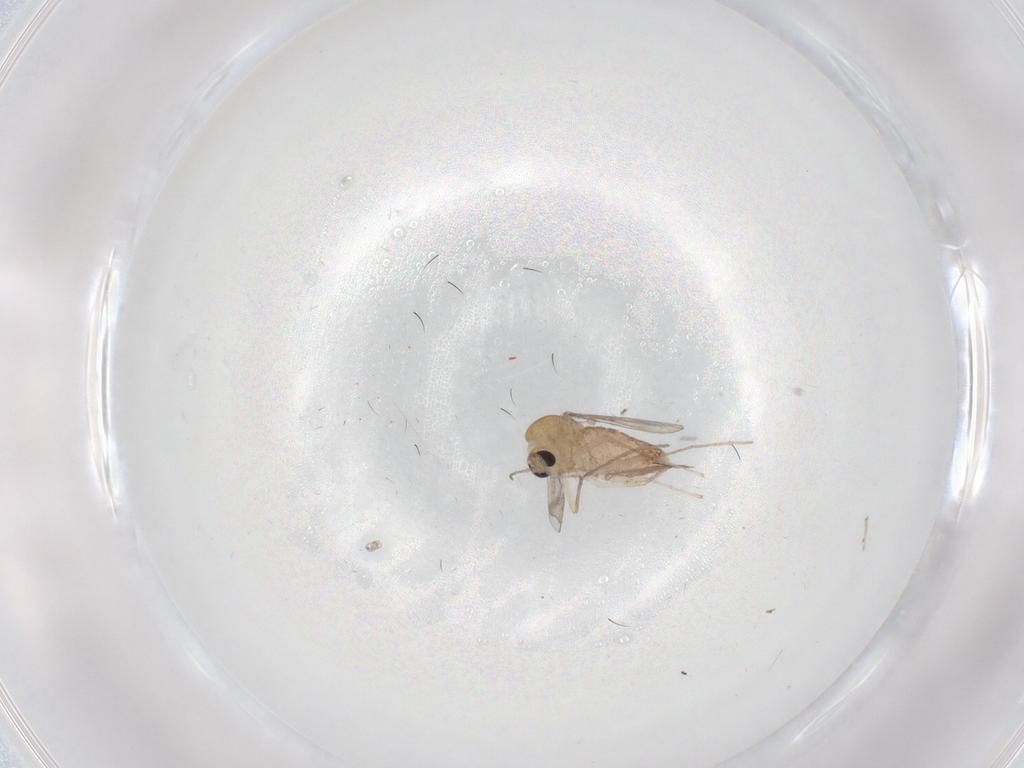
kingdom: Animalia
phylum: Arthropoda
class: Insecta
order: Diptera
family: Chironomidae
